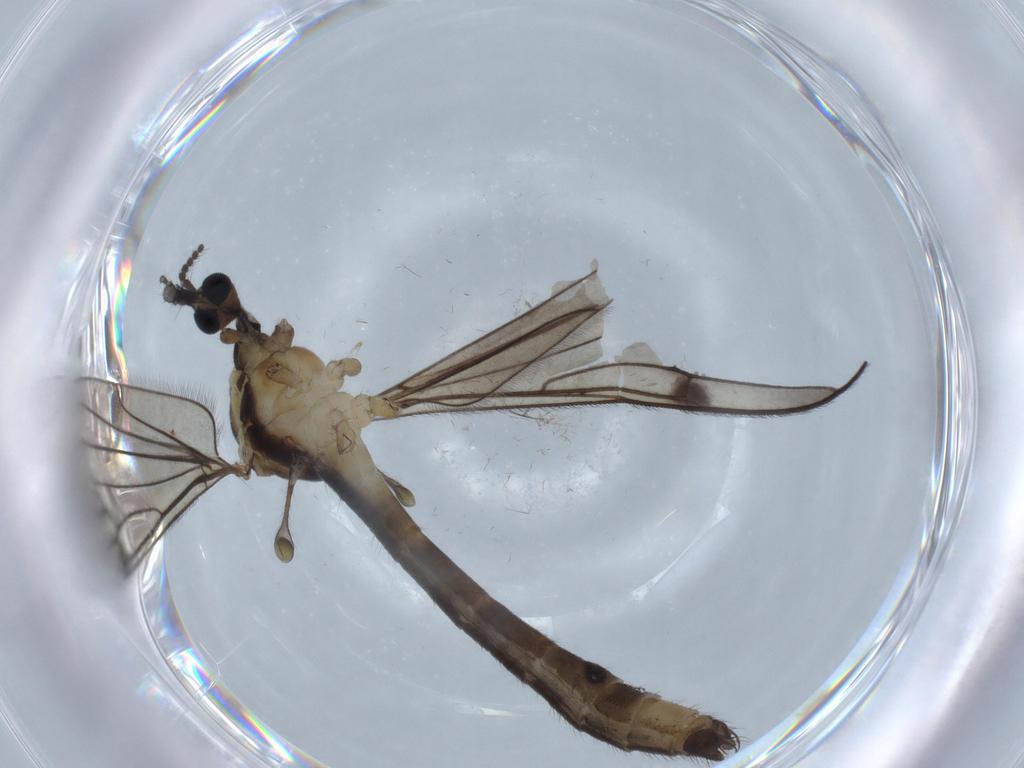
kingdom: Animalia
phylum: Arthropoda
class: Insecta
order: Diptera
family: Limoniidae
